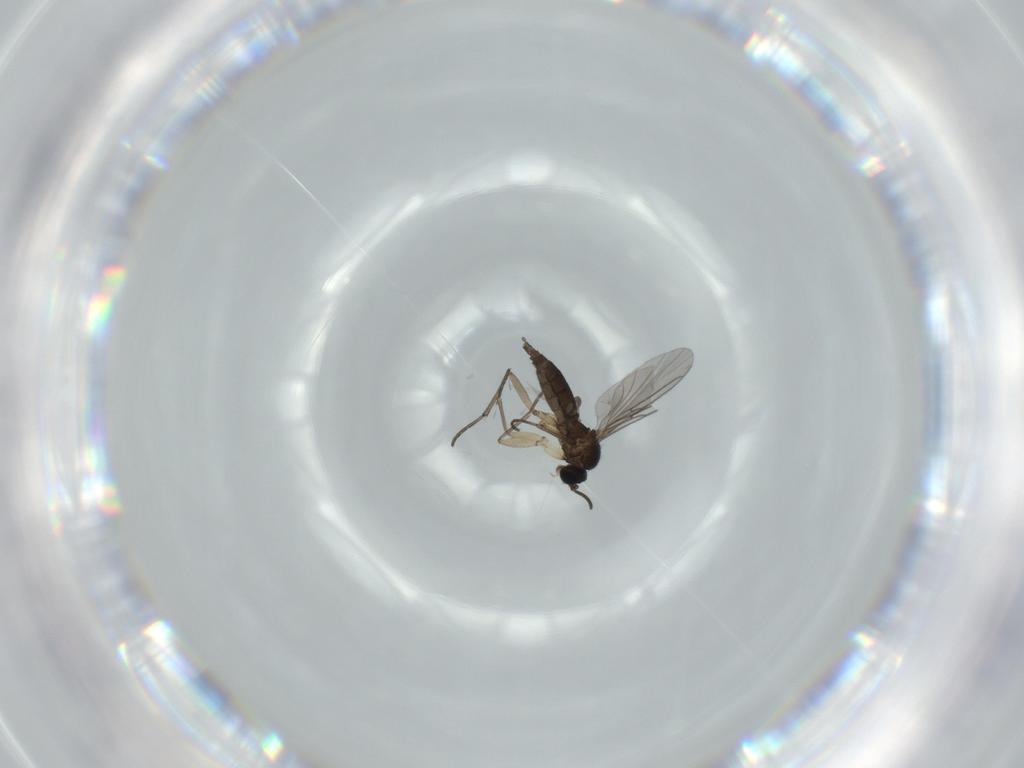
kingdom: Animalia
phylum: Arthropoda
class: Insecta
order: Diptera
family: Sciaridae
